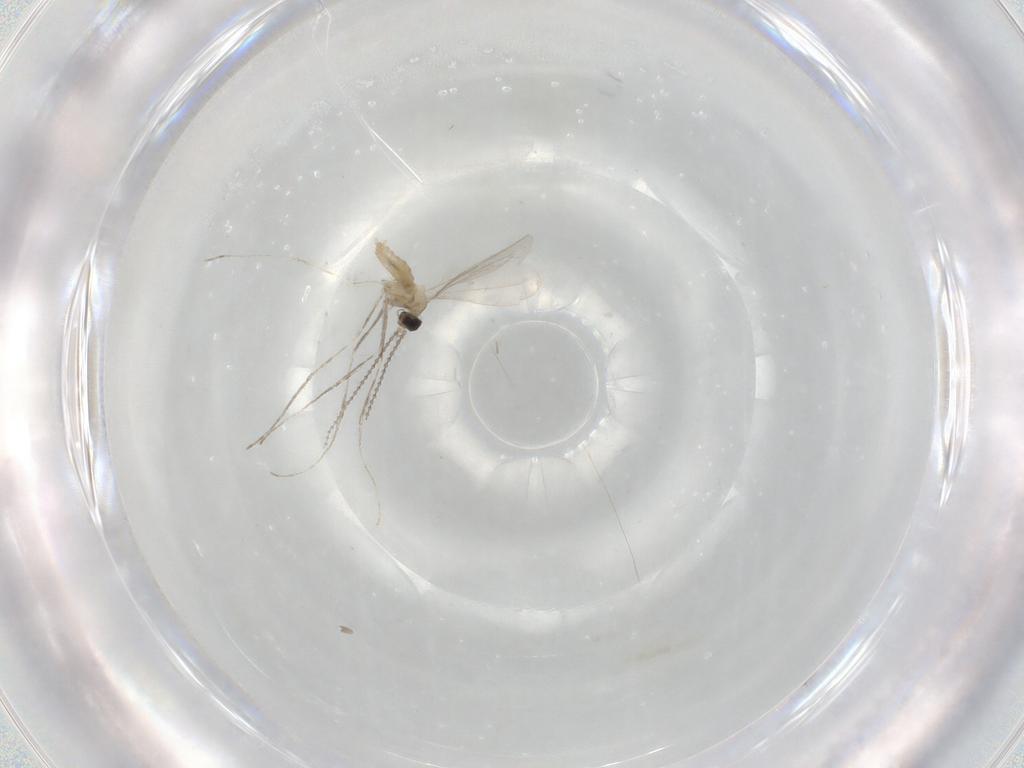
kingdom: Animalia
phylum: Arthropoda
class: Insecta
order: Diptera
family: Cecidomyiidae
